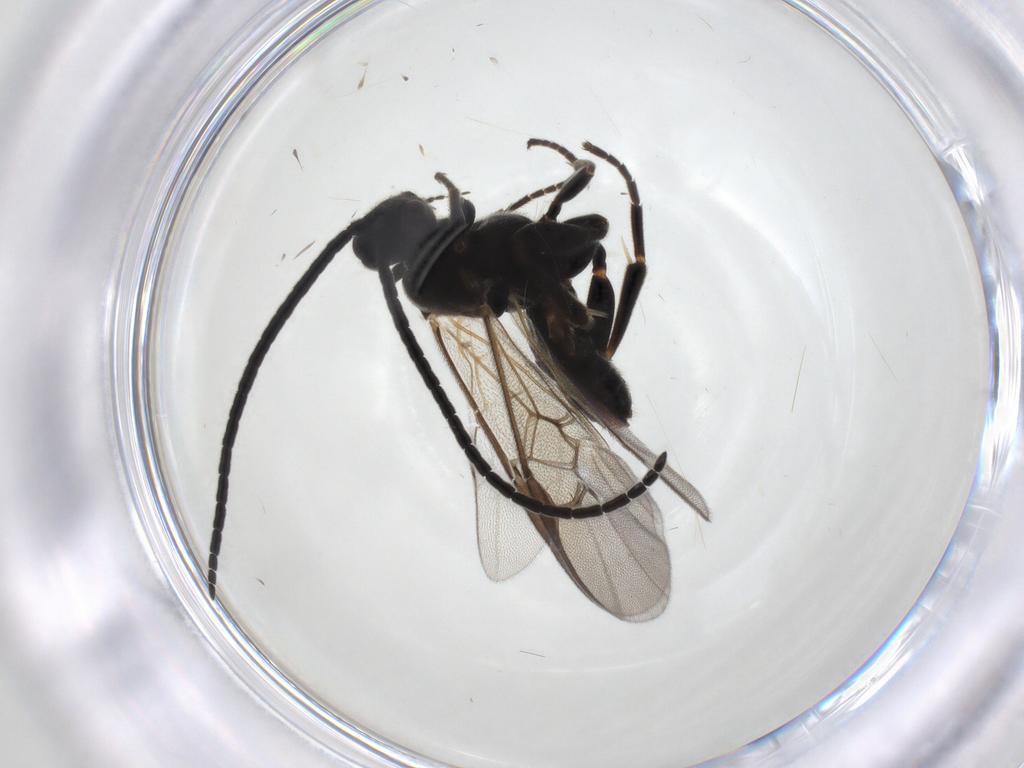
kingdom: Animalia
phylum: Arthropoda
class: Insecta
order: Hymenoptera
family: Braconidae
